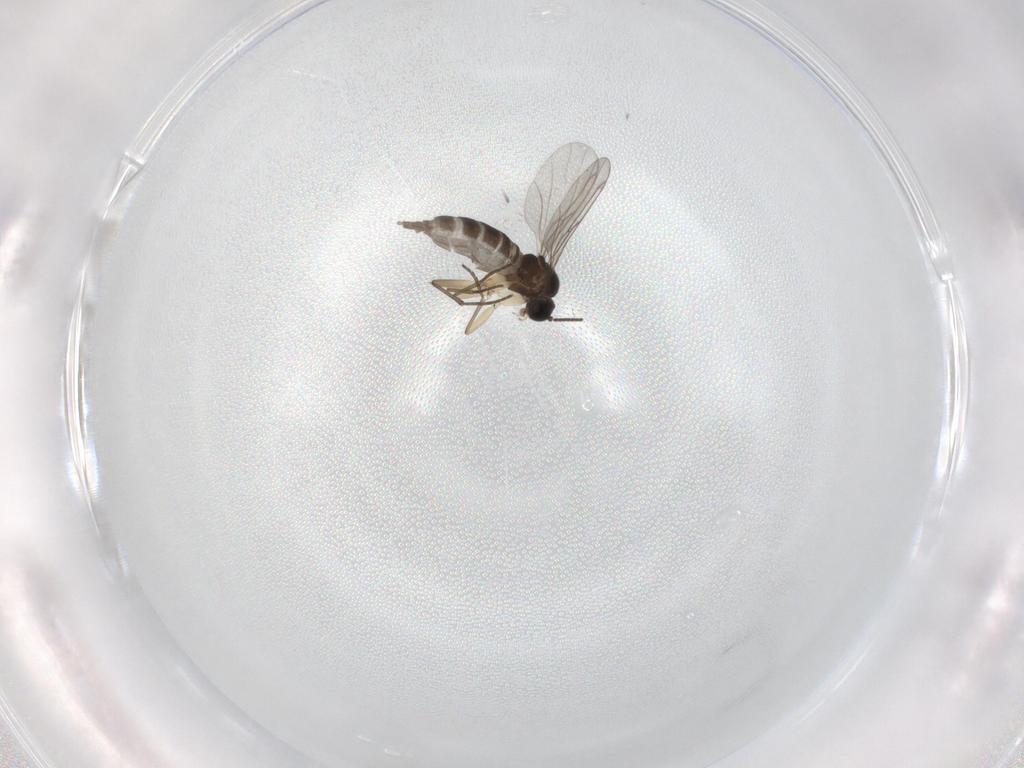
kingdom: Animalia
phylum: Arthropoda
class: Insecta
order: Diptera
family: Sciaridae
